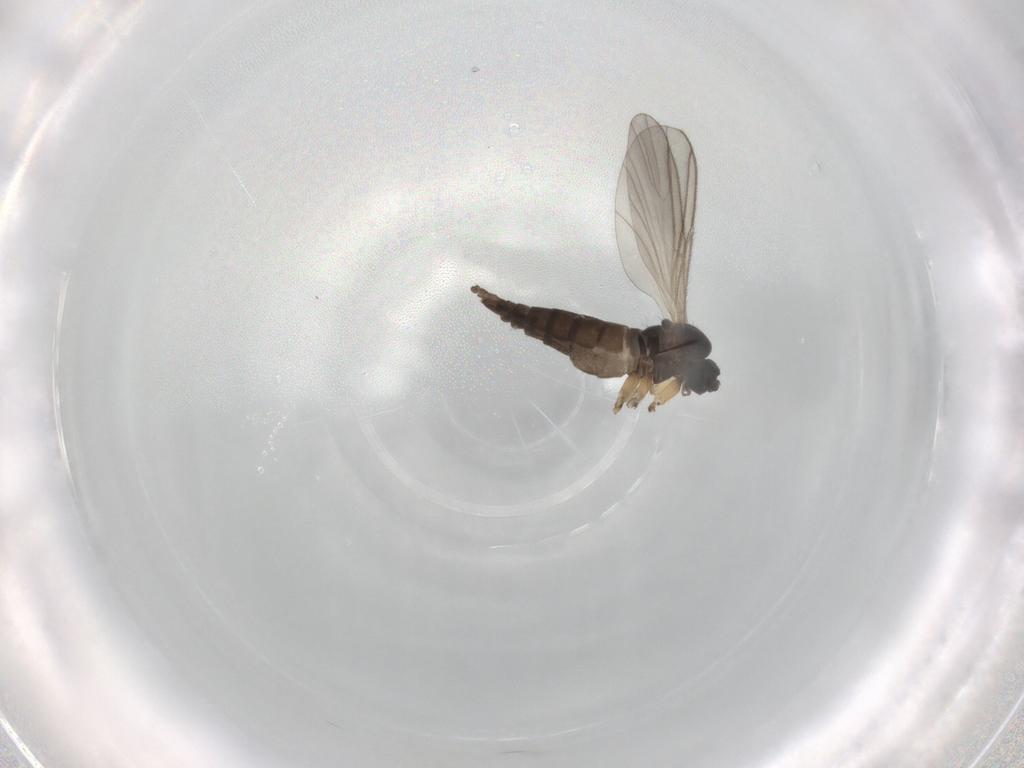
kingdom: Animalia
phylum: Arthropoda
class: Insecta
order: Diptera
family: Sciaridae
